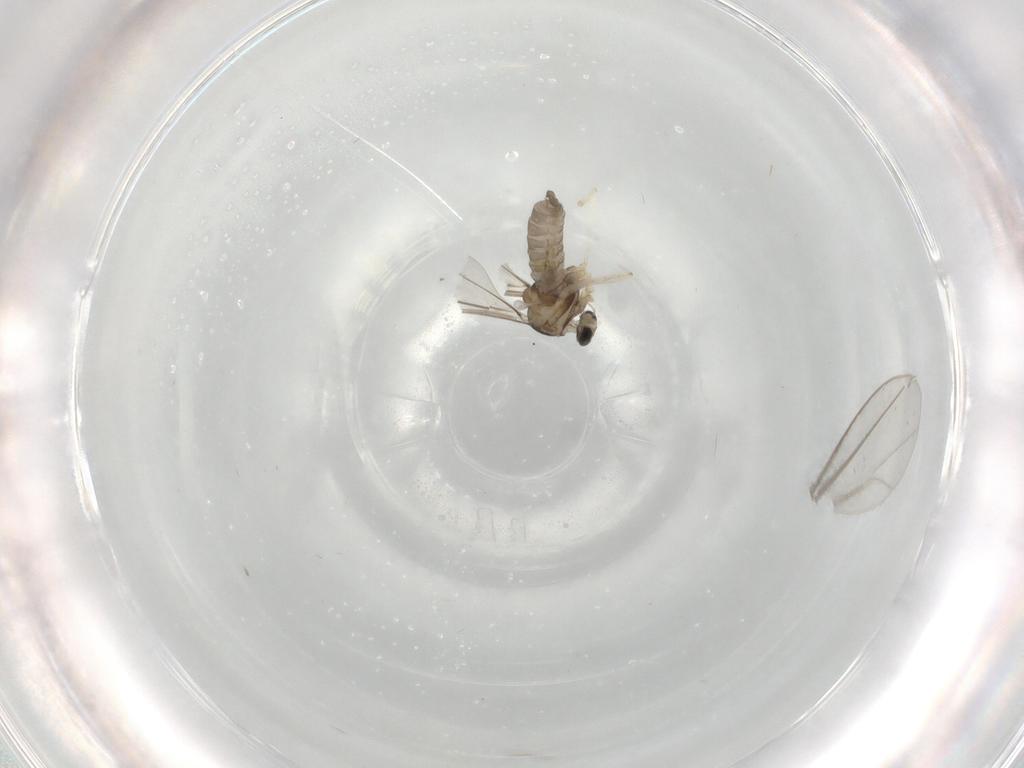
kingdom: Animalia
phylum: Arthropoda
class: Insecta
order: Diptera
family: Cecidomyiidae
